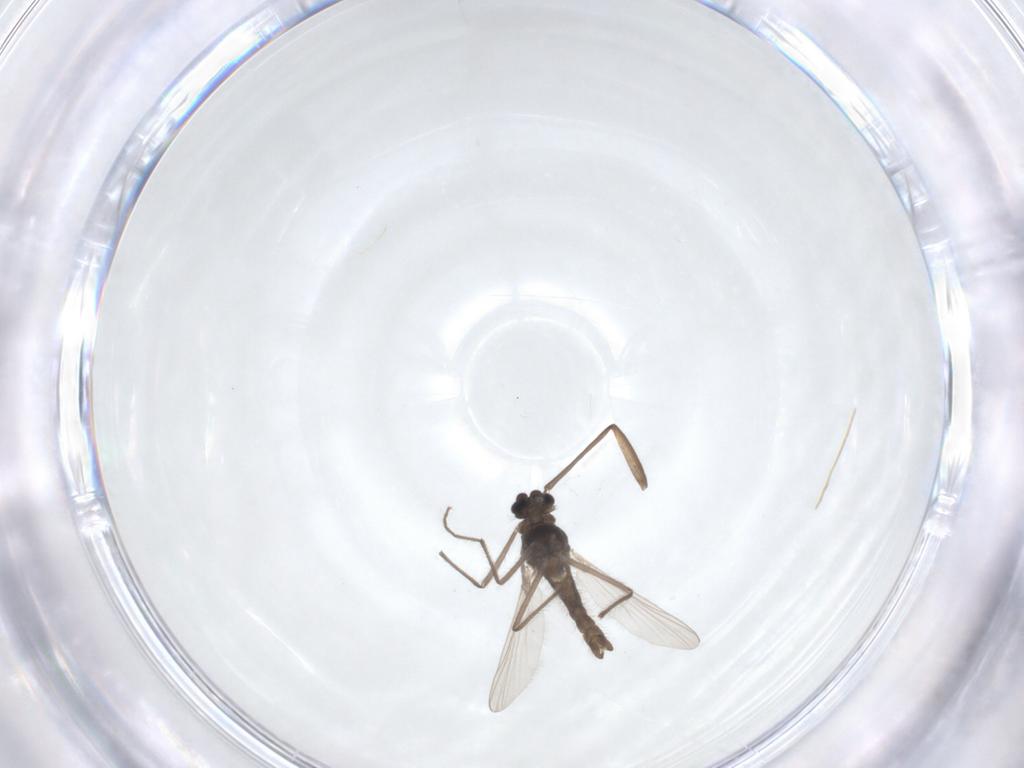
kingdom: Animalia
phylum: Arthropoda
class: Insecta
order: Diptera
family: Chironomidae
